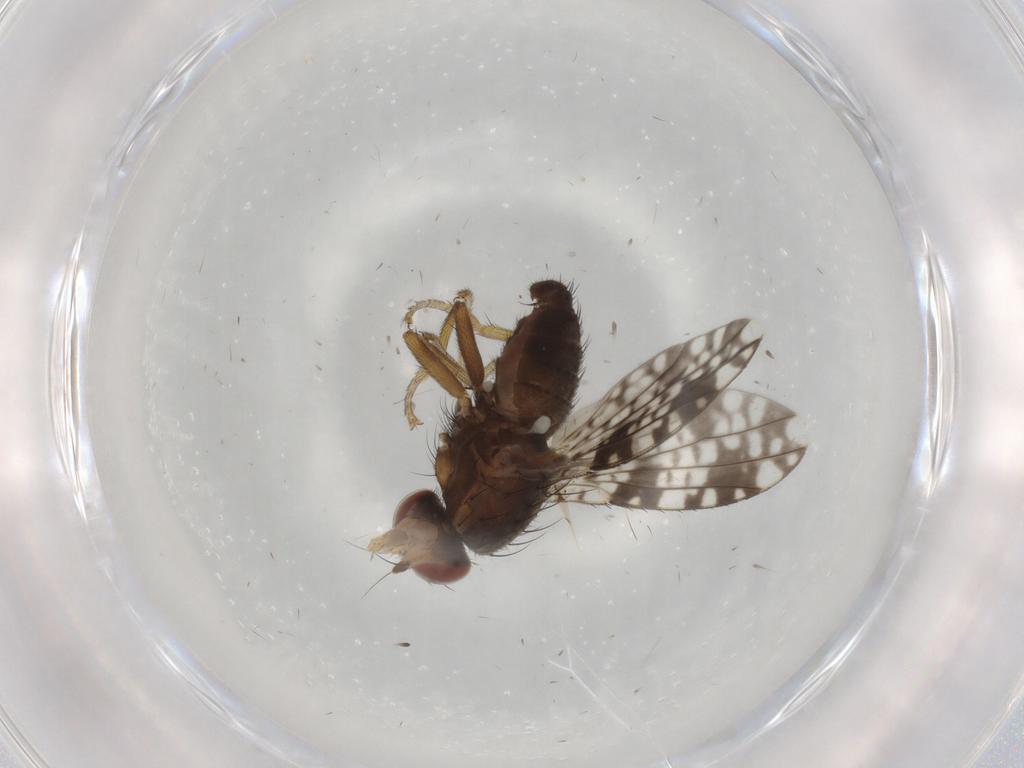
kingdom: Animalia
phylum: Arthropoda
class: Insecta
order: Diptera
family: Tephritidae
